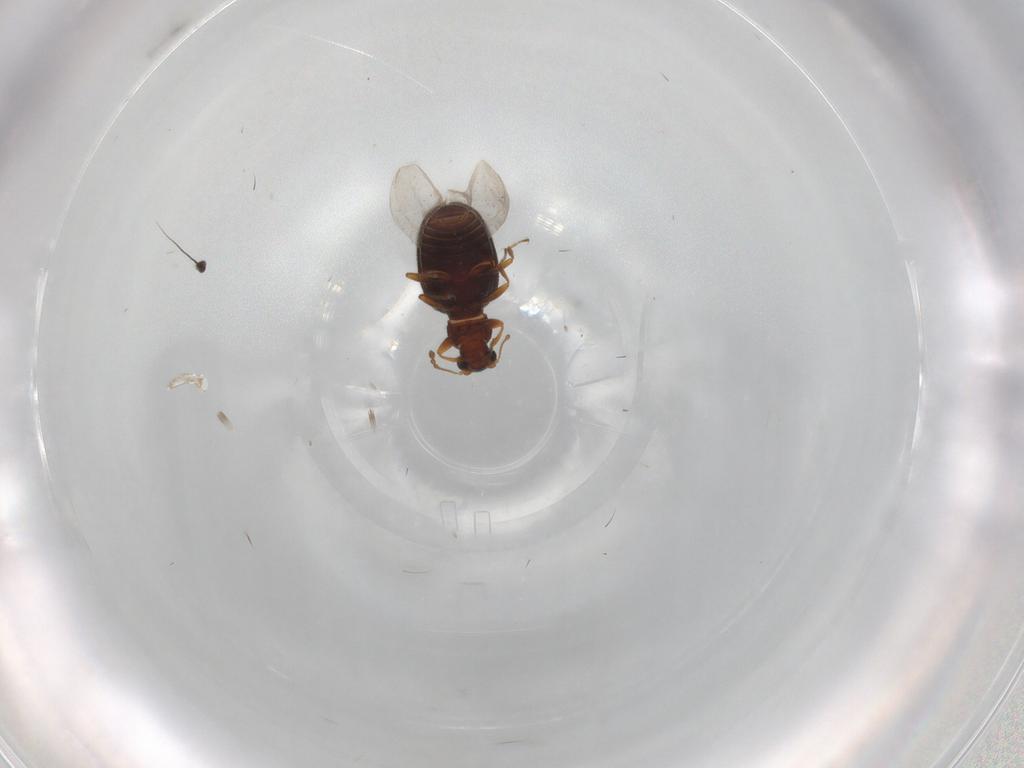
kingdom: Animalia
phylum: Arthropoda
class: Insecta
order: Coleoptera
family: Latridiidae
